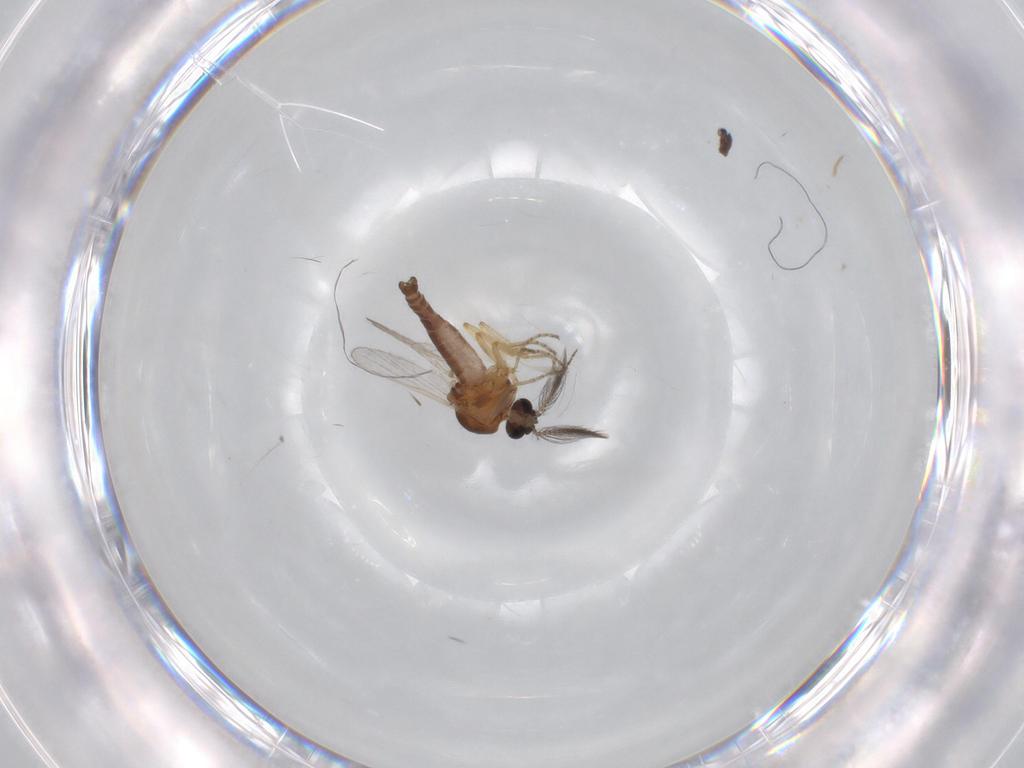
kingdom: Animalia
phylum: Arthropoda
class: Insecta
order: Diptera
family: Ceratopogonidae
